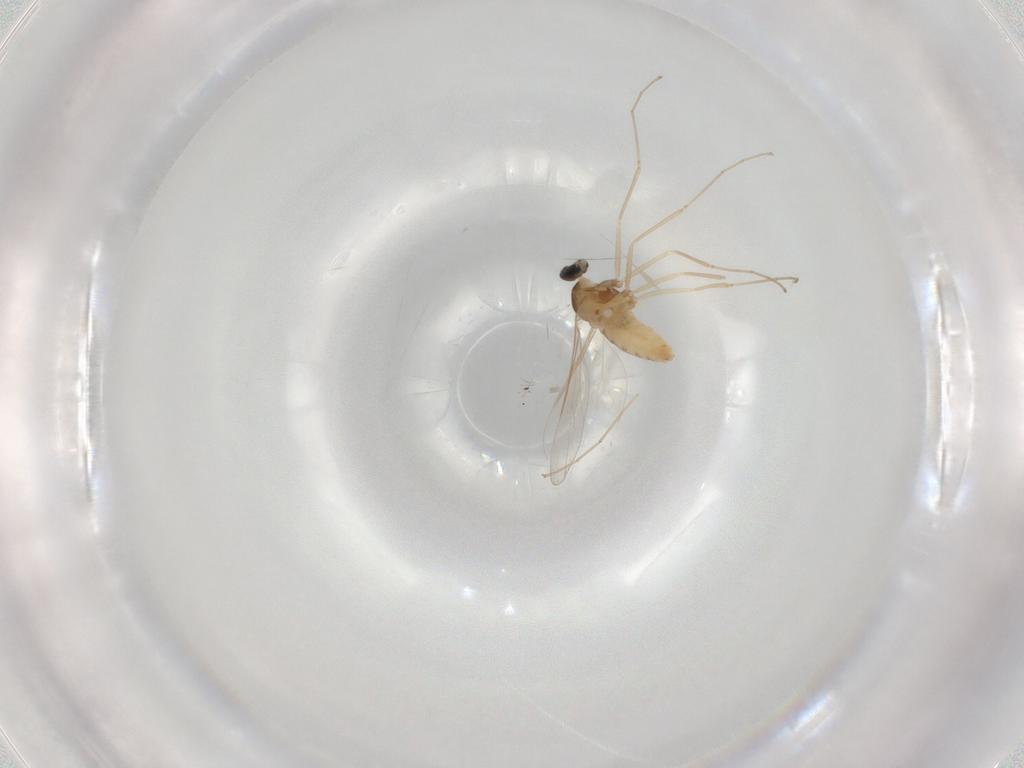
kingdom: Animalia
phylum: Arthropoda
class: Insecta
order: Diptera
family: Cecidomyiidae
